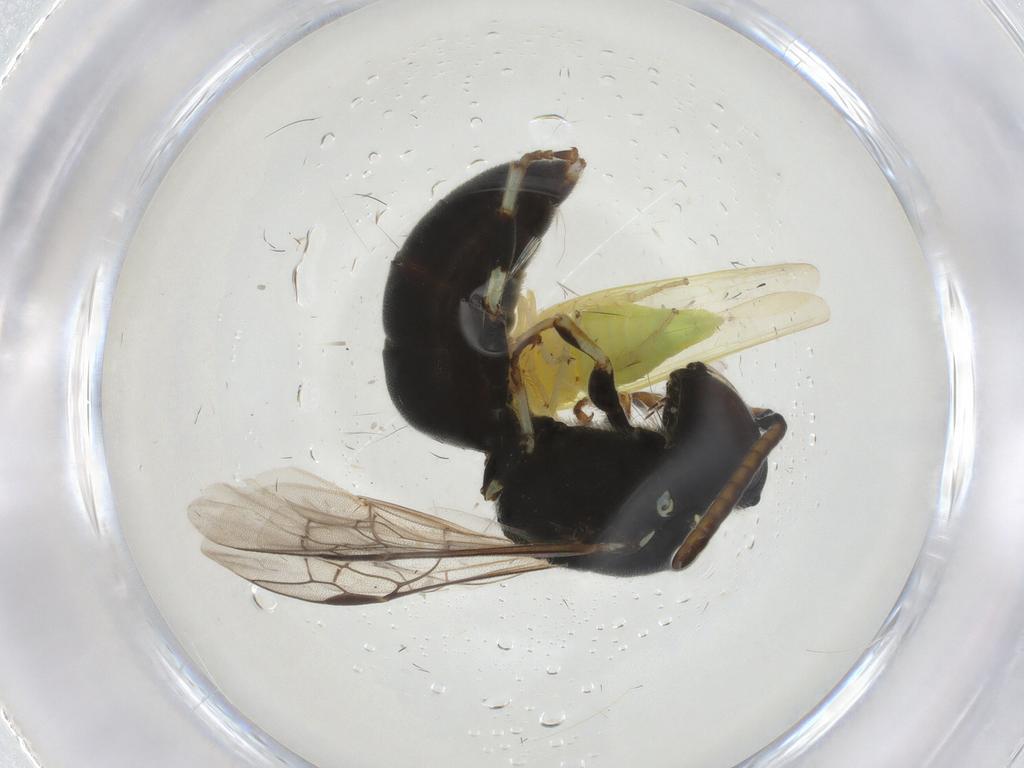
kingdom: Animalia
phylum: Arthropoda
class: Insecta
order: Hymenoptera
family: Colletidae
